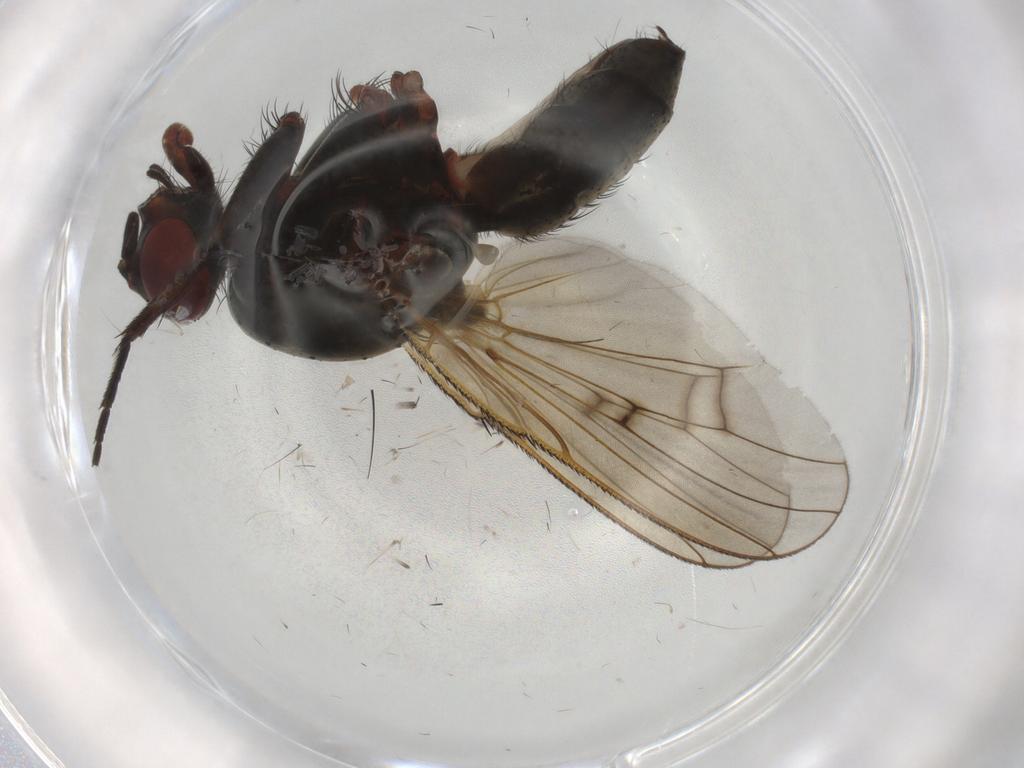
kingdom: Animalia
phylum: Arthropoda
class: Insecta
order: Diptera
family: Anthomyiidae
